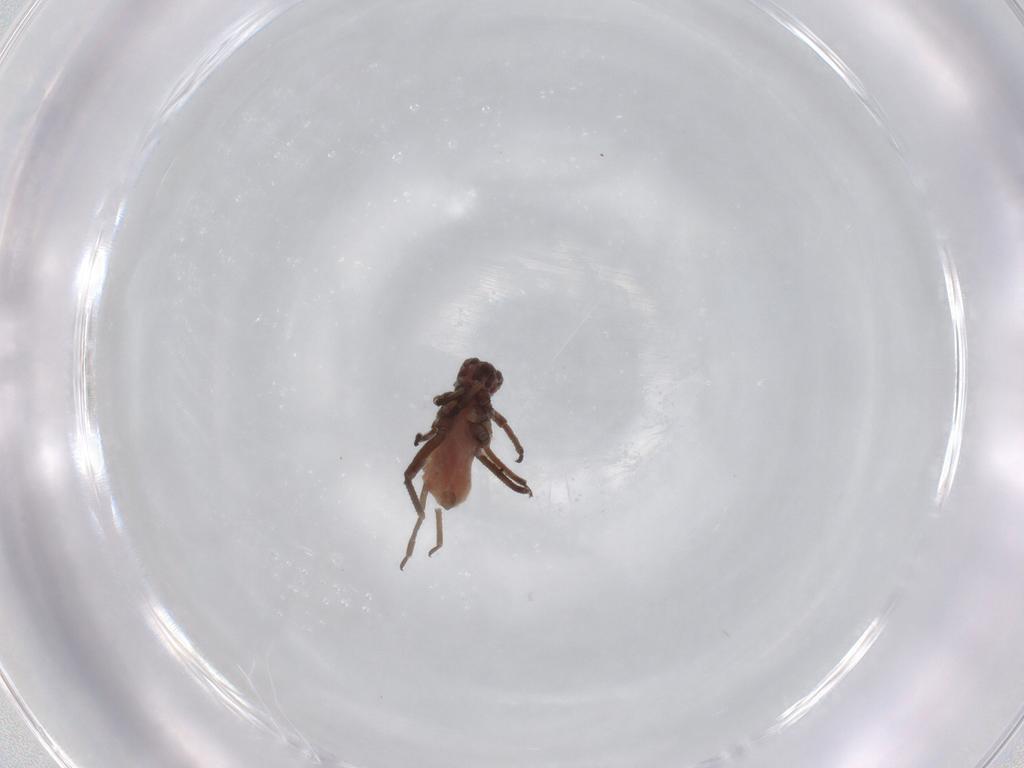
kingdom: Animalia
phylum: Arthropoda
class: Insecta
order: Hemiptera
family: Aphididae
